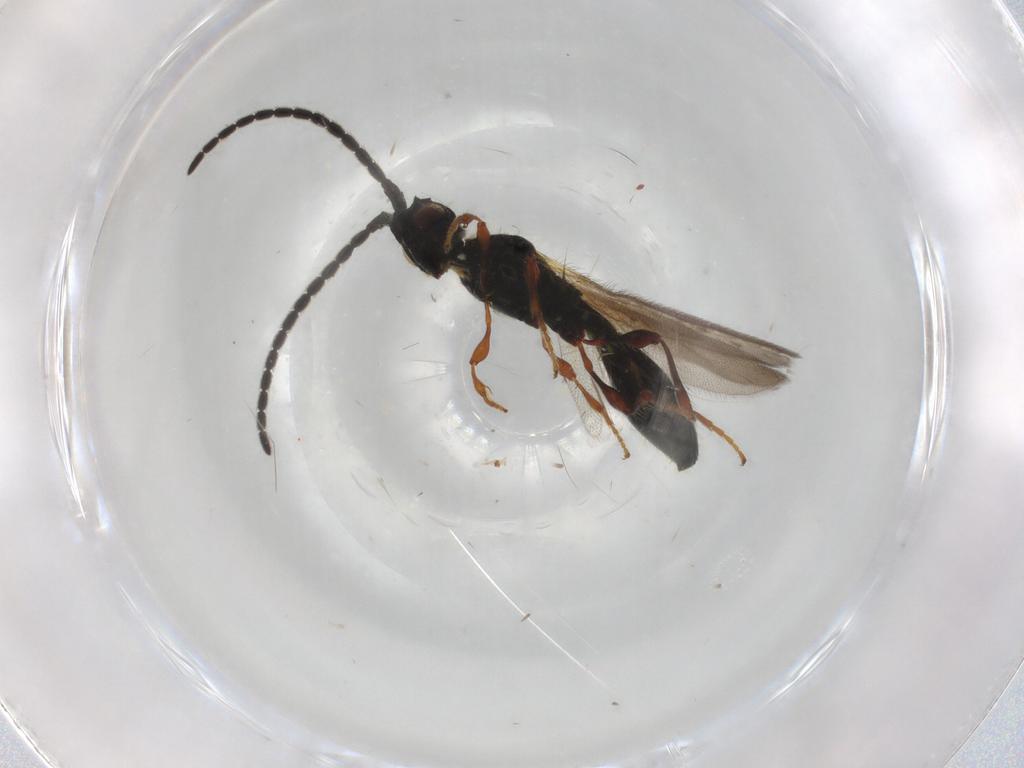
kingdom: Animalia
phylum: Arthropoda
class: Insecta
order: Hymenoptera
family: Diapriidae
